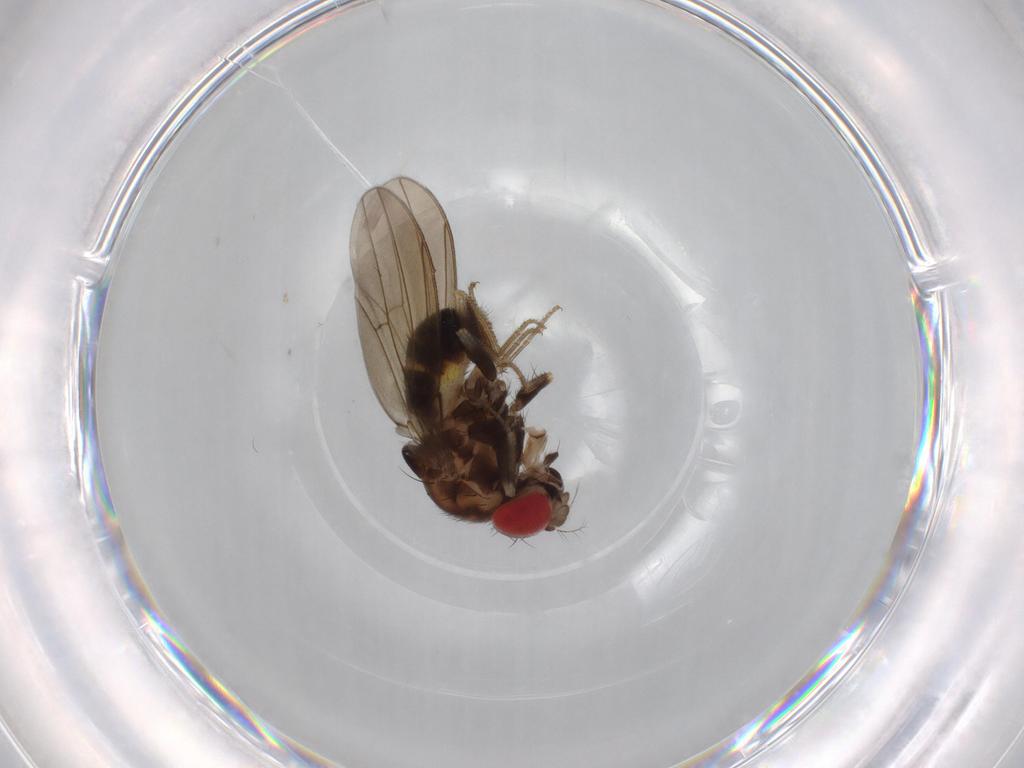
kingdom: Animalia
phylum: Arthropoda
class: Insecta
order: Diptera
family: Drosophilidae
